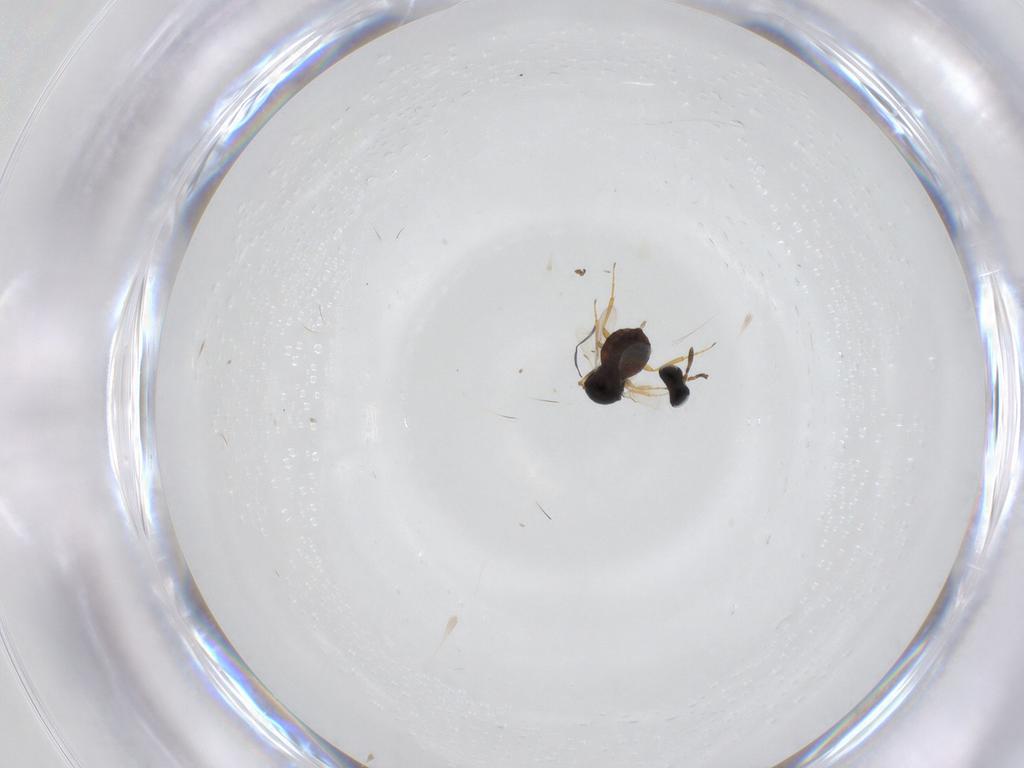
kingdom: Animalia
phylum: Arthropoda
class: Insecta
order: Hymenoptera
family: Scelionidae
